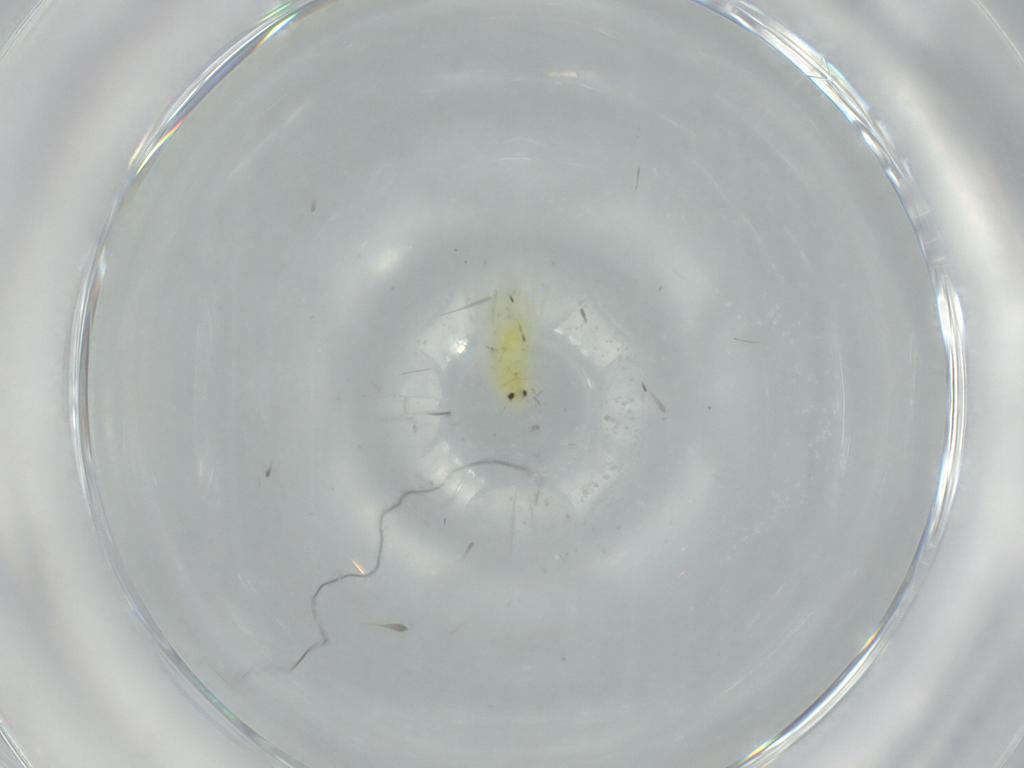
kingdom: Animalia
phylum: Arthropoda
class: Insecta
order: Hemiptera
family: Aleyrodidae
